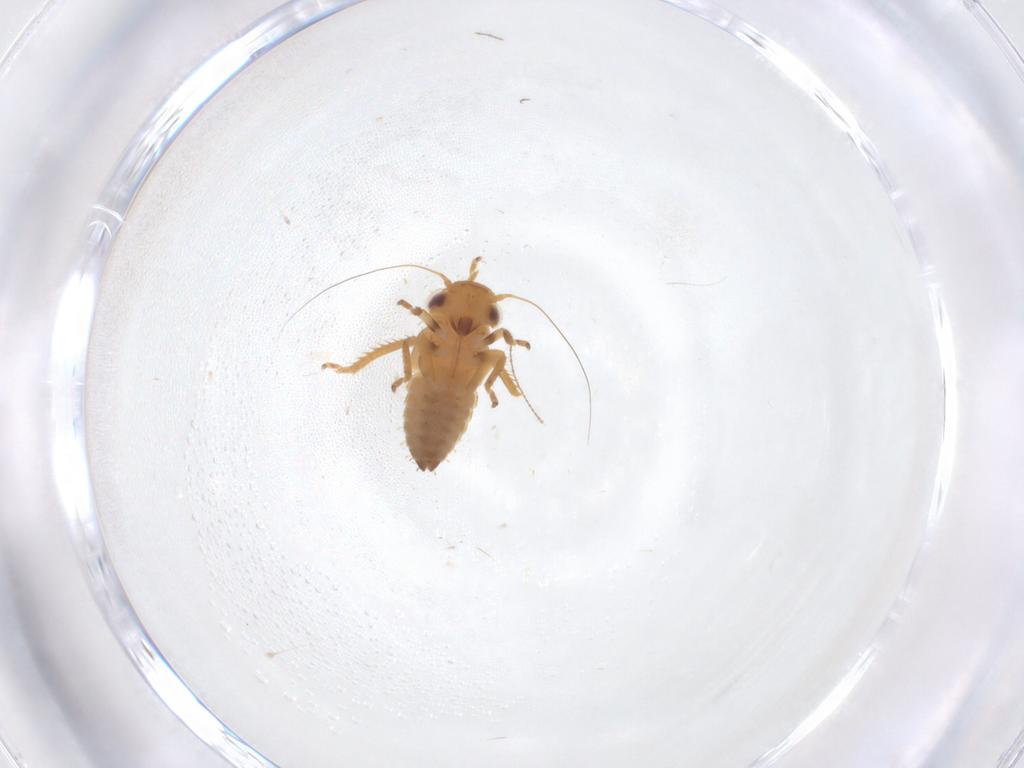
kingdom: Animalia
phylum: Arthropoda
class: Insecta
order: Hemiptera
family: Cicadellidae
